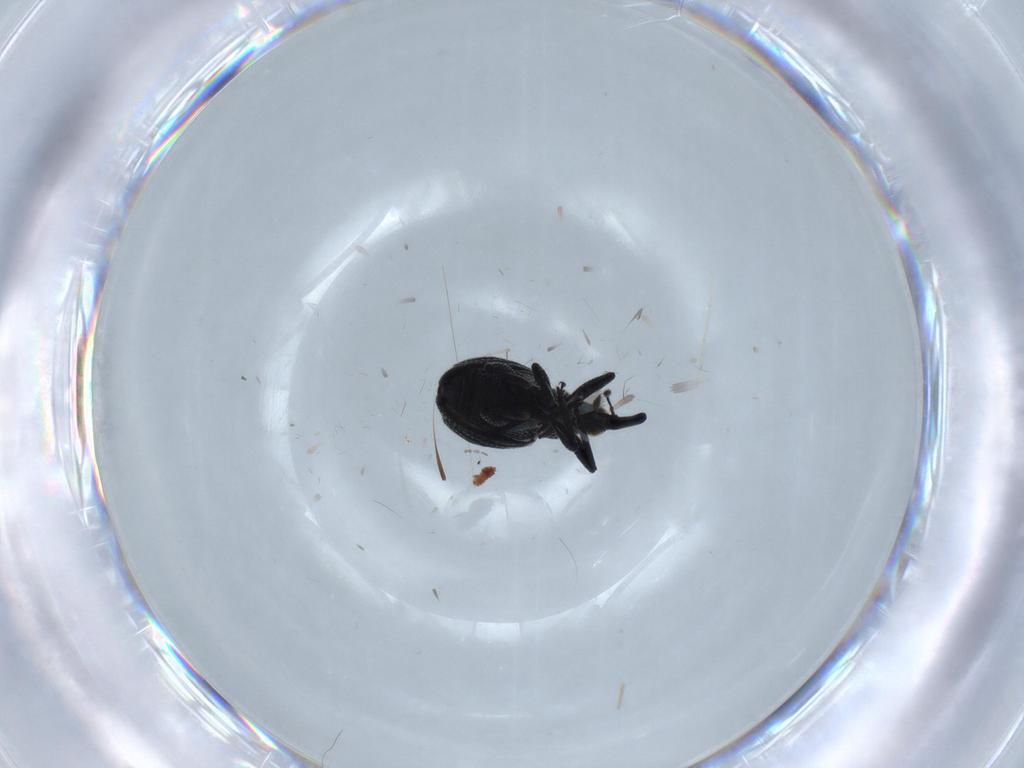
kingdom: Animalia
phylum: Arthropoda
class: Insecta
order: Coleoptera
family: Brentidae
